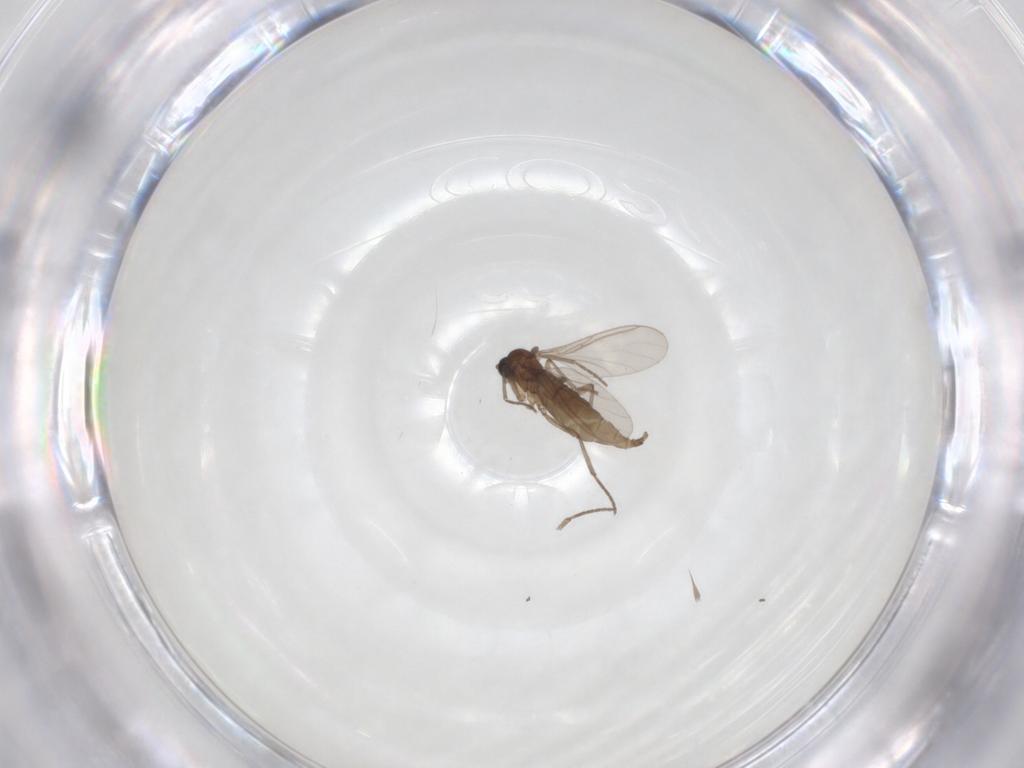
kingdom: Animalia
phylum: Arthropoda
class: Insecta
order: Diptera
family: Sciaridae
